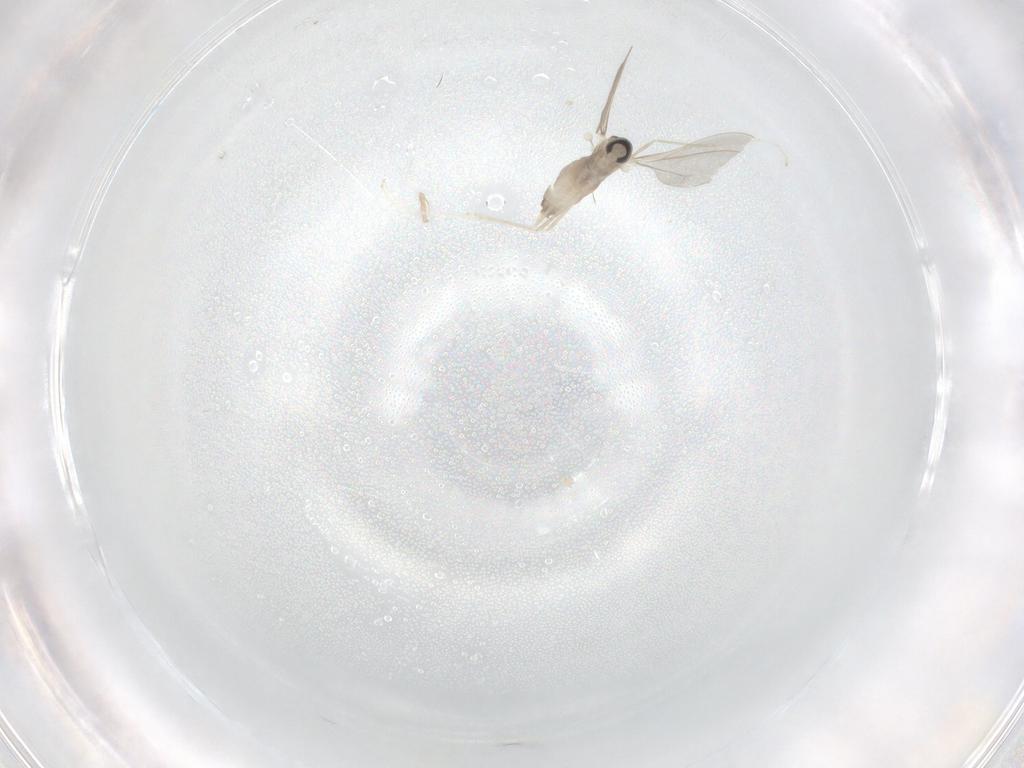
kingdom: Animalia
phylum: Arthropoda
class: Insecta
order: Diptera
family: Cecidomyiidae
